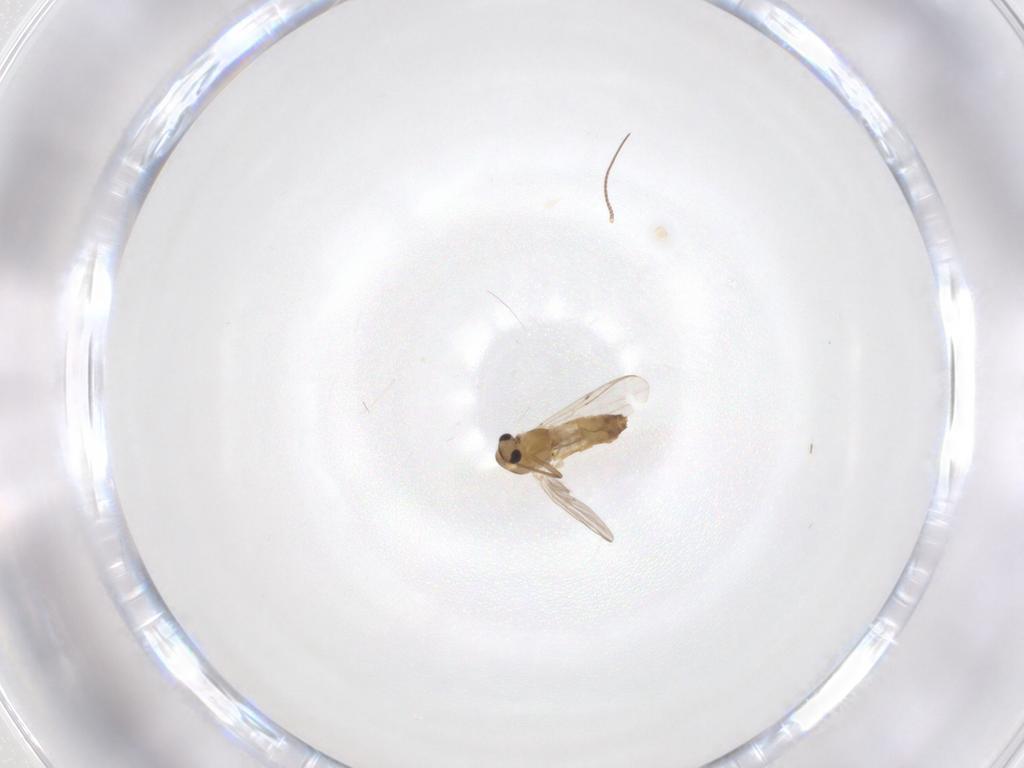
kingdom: Animalia
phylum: Arthropoda
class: Insecta
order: Diptera
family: Chironomidae
